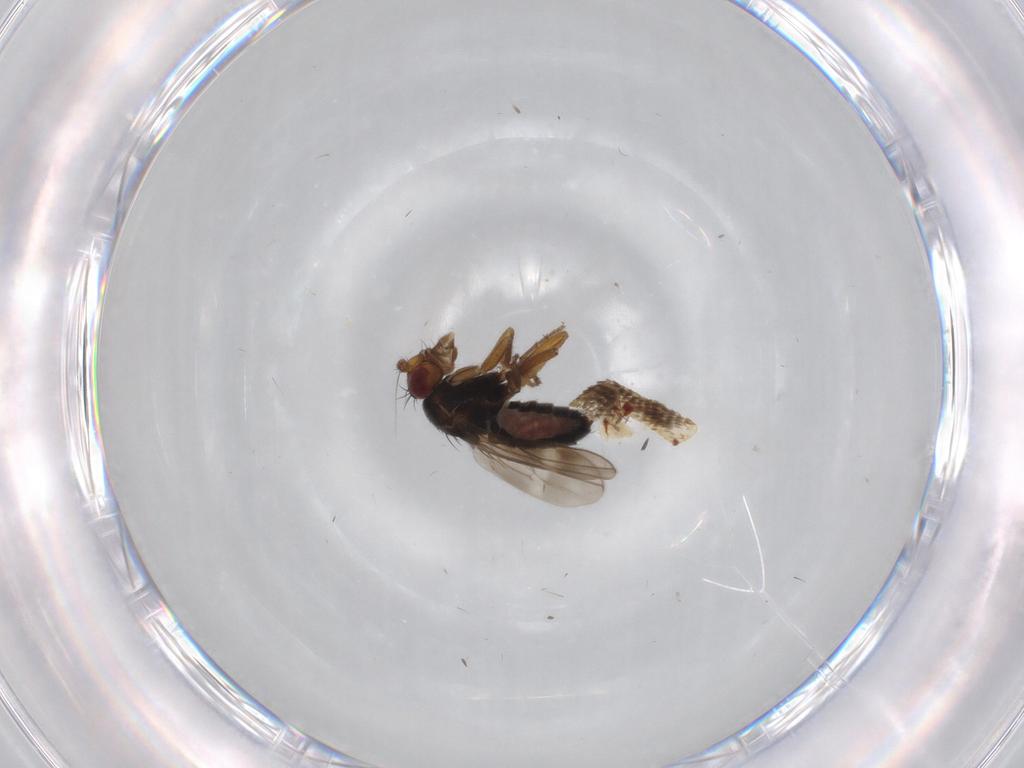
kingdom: Animalia
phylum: Arthropoda
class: Insecta
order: Diptera
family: Sphaeroceridae
